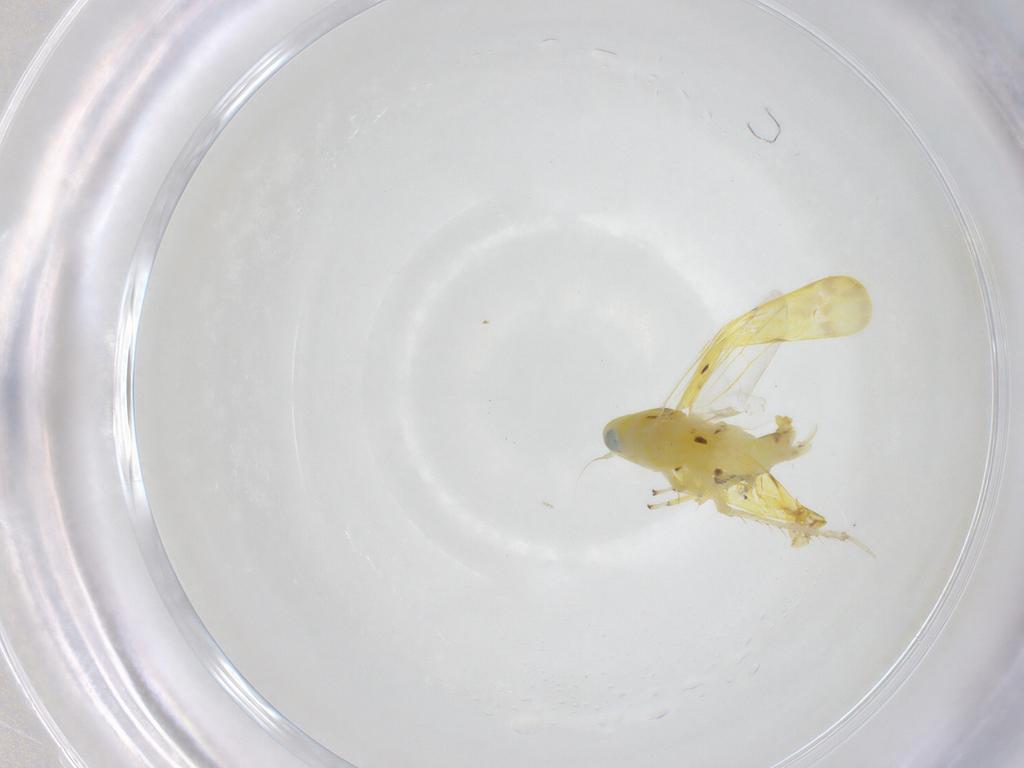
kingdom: Animalia
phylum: Arthropoda
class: Insecta
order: Hemiptera
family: Cicadellidae
